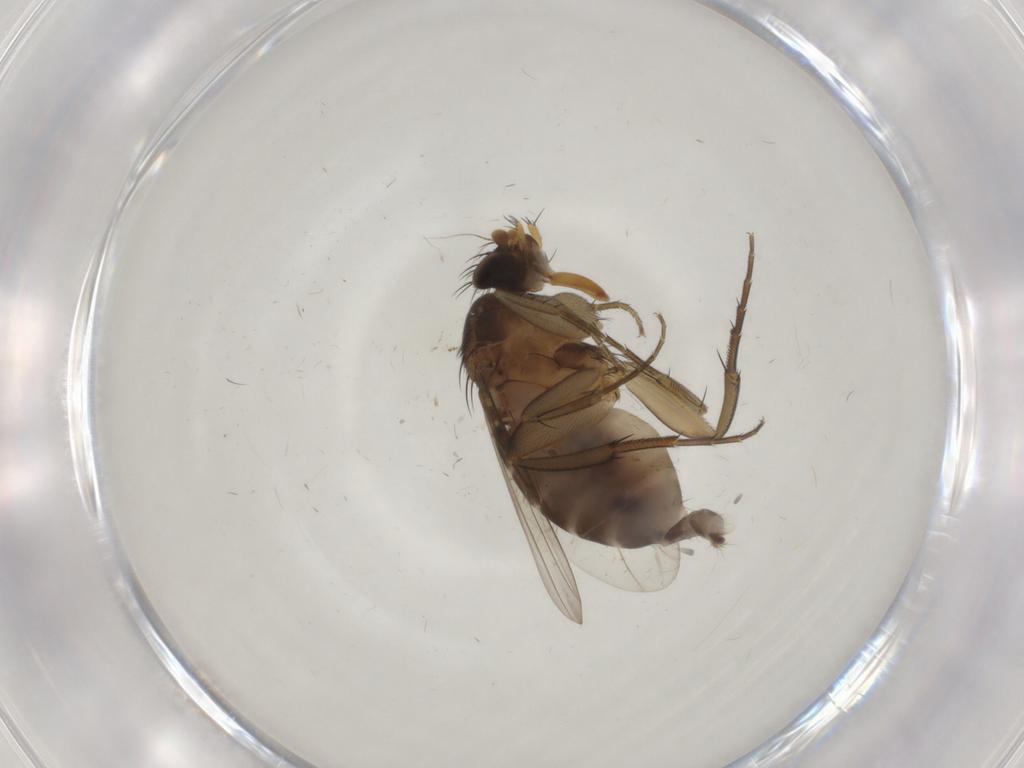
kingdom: Animalia
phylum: Arthropoda
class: Insecta
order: Diptera
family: Phoridae
